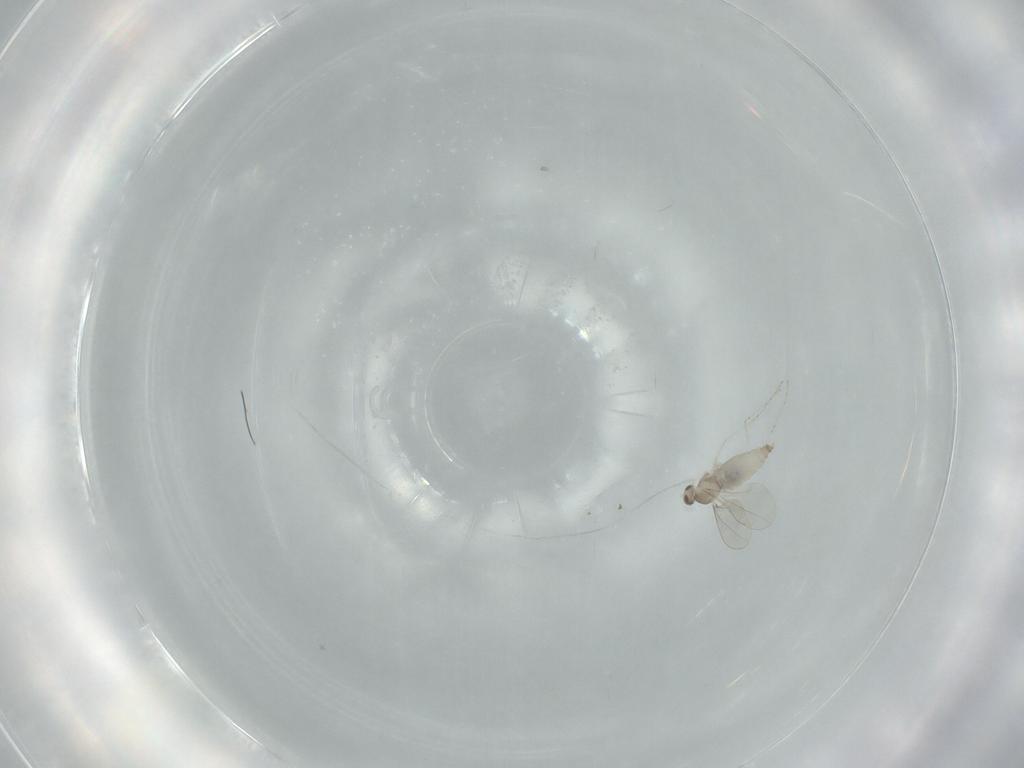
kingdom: Animalia
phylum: Arthropoda
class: Insecta
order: Diptera
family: Cecidomyiidae
